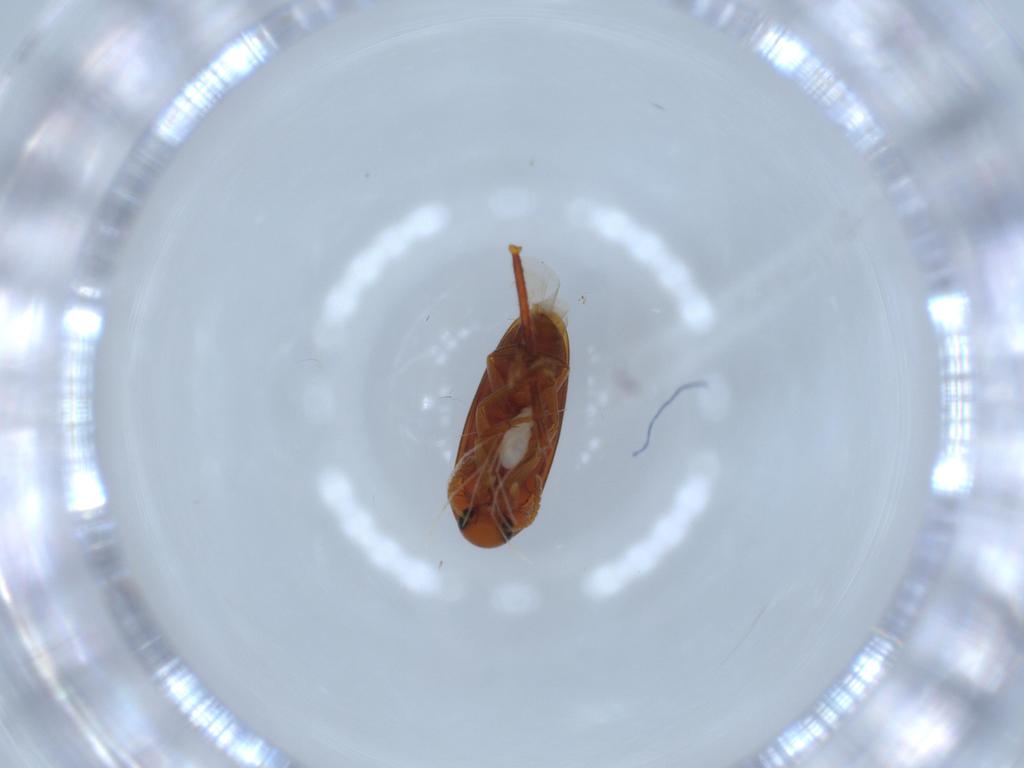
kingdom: Animalia
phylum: Arthropoda
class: Insecta
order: Coleoptera
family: Scraptiidae
